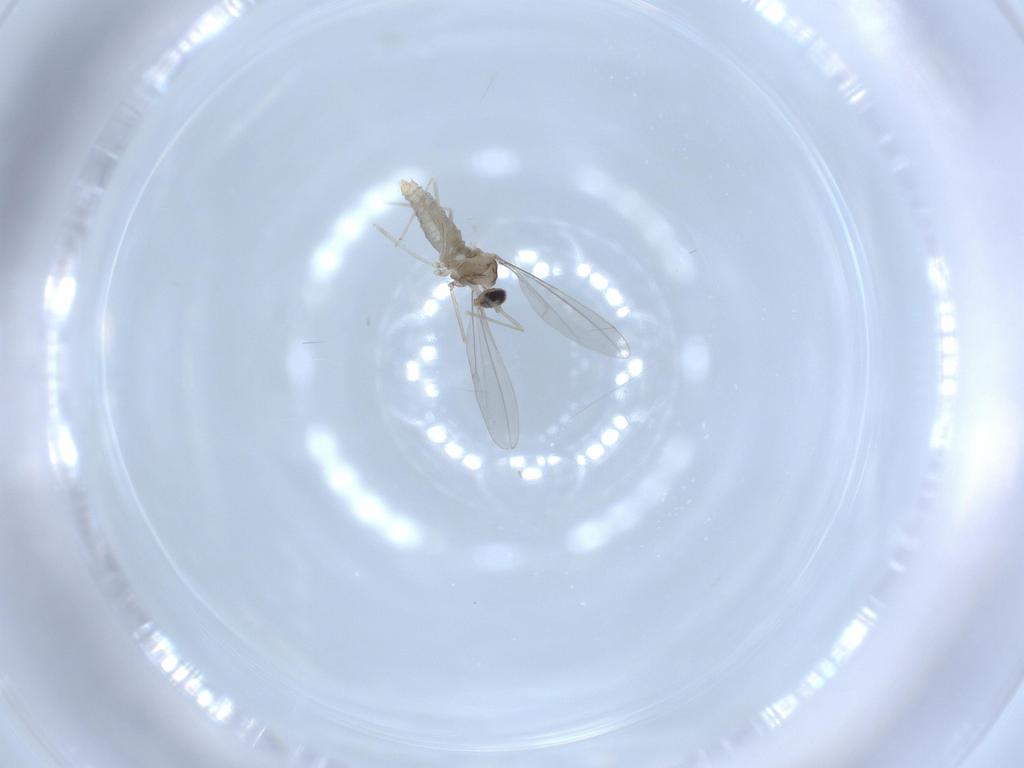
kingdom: Animalia
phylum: Arthropoda
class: Insecta
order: Diptera
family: Cecidomyiidae
